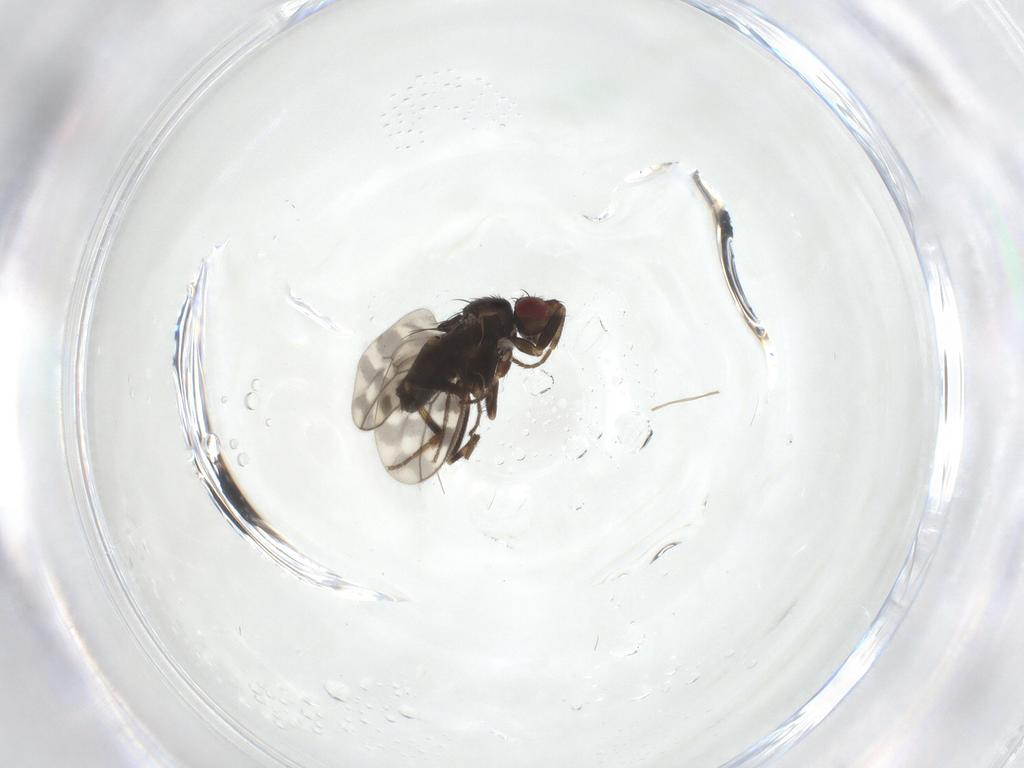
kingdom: Animalia
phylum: Arthropoda
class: Insecta
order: Diptera
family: Sphaeroceridae
